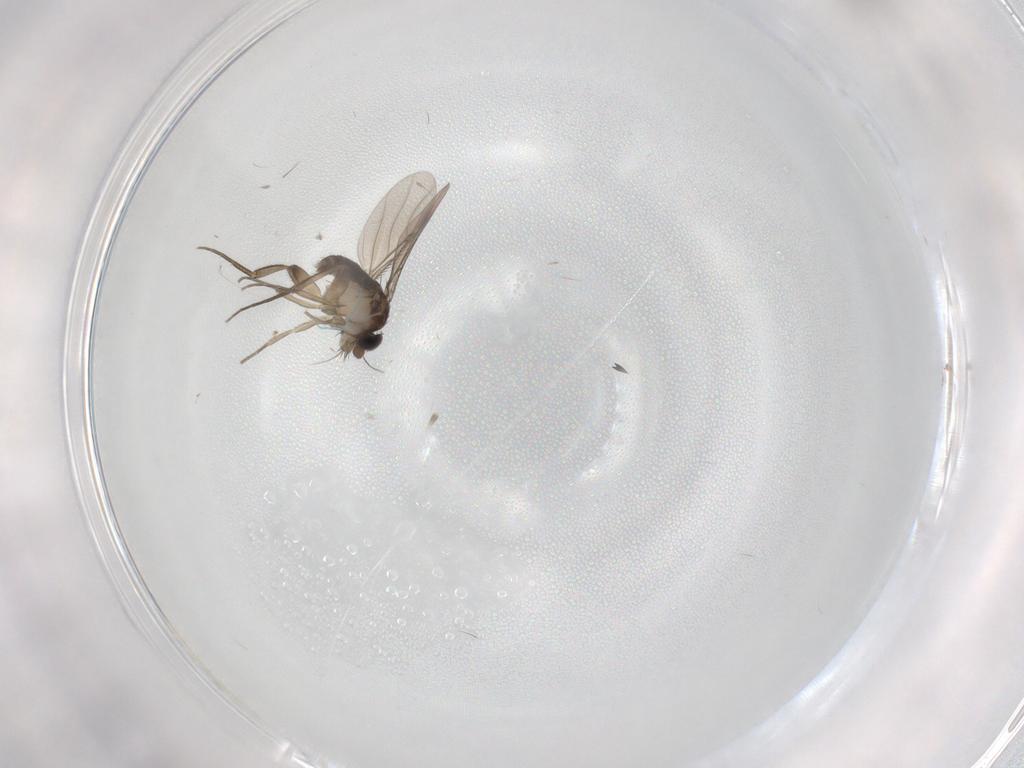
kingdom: Animalia
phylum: Arthropoda
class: Insecta
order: Diptera
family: Phoridae
